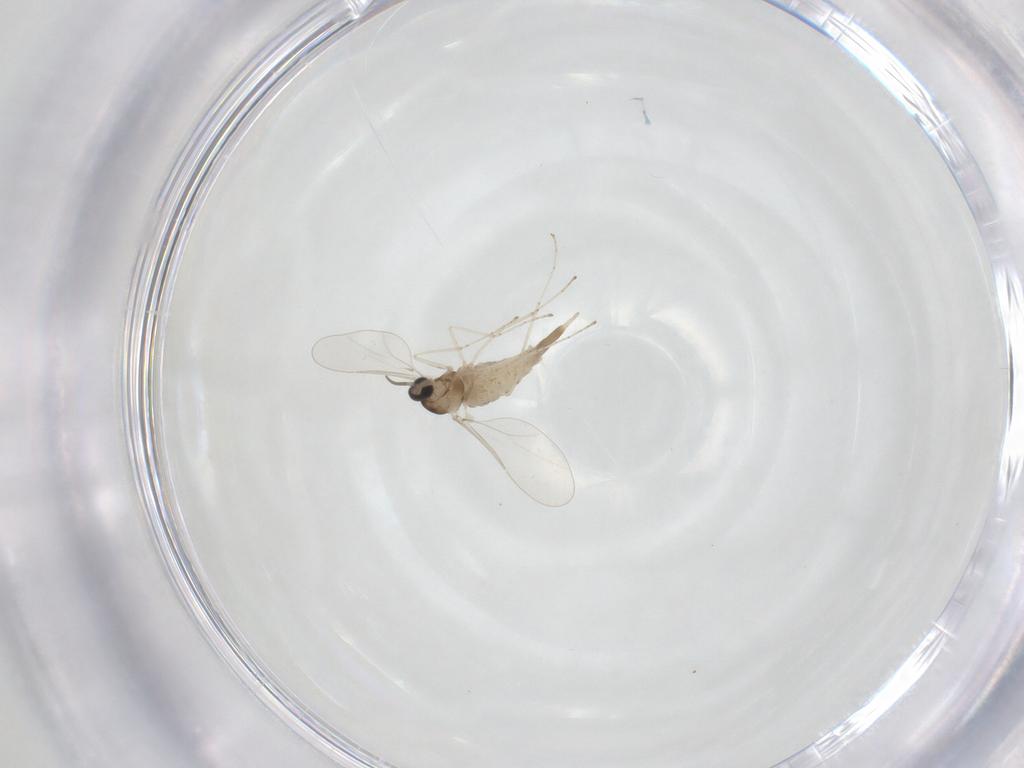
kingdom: Animalia
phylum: Arthropoda
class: Insecta
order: Diptera
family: Cecidomyiidae
